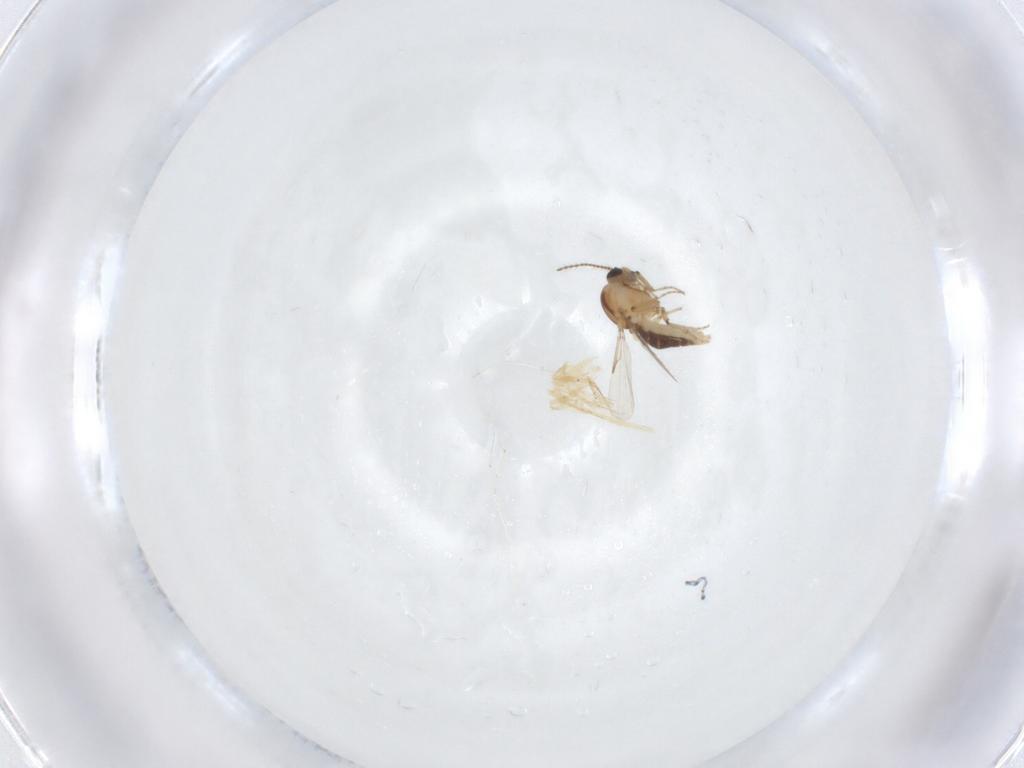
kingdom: Animalia
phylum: Arthropoda
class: Insecta
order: Diptera
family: Ceratopogonidae
